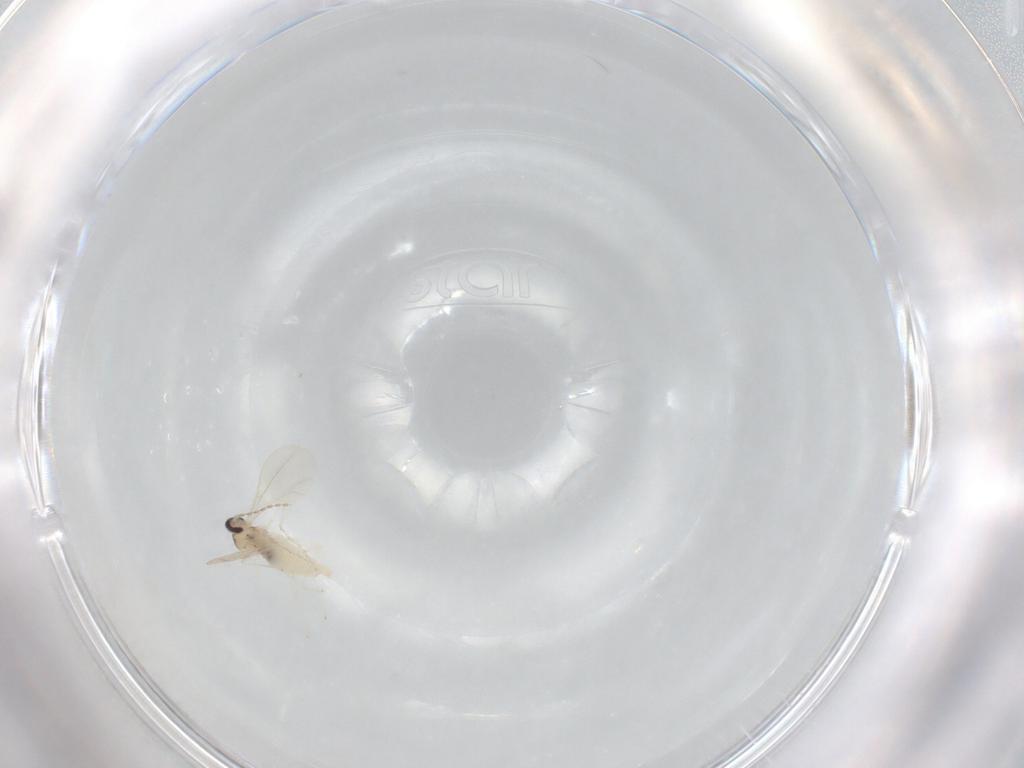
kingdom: Animalia
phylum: Arthropoda
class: Insecta
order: Diptera
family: Cecidomyiidae
